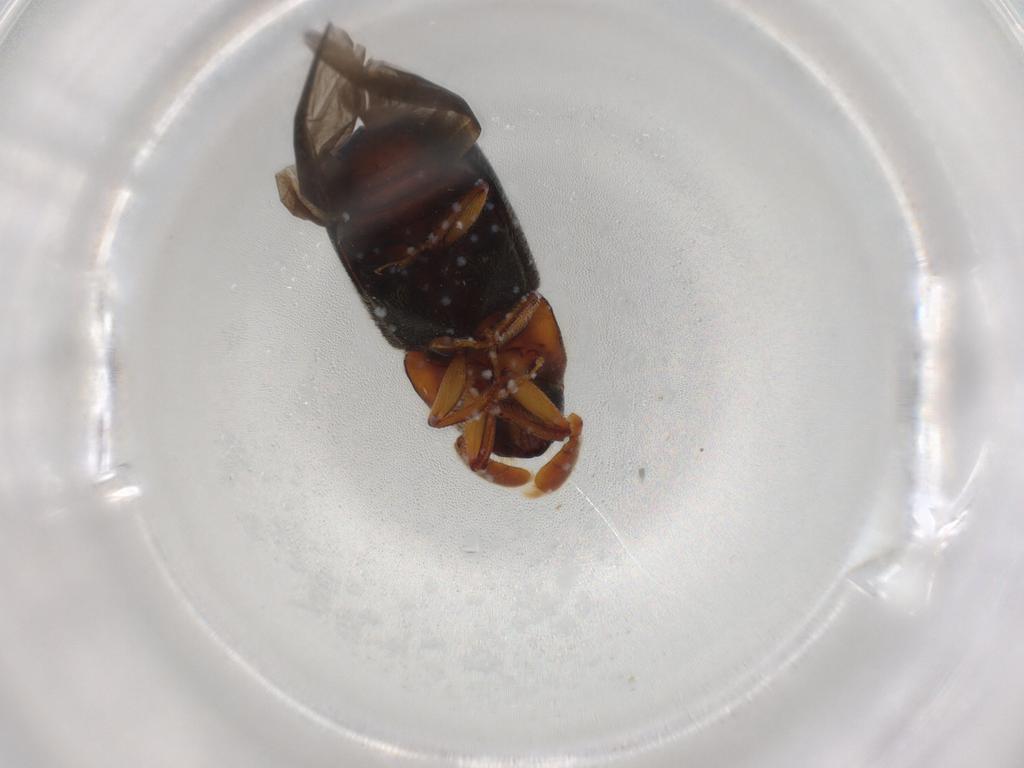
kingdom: Animalia
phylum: Arthropoda
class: Insecta
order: Coleoptera
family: Curculionidae
